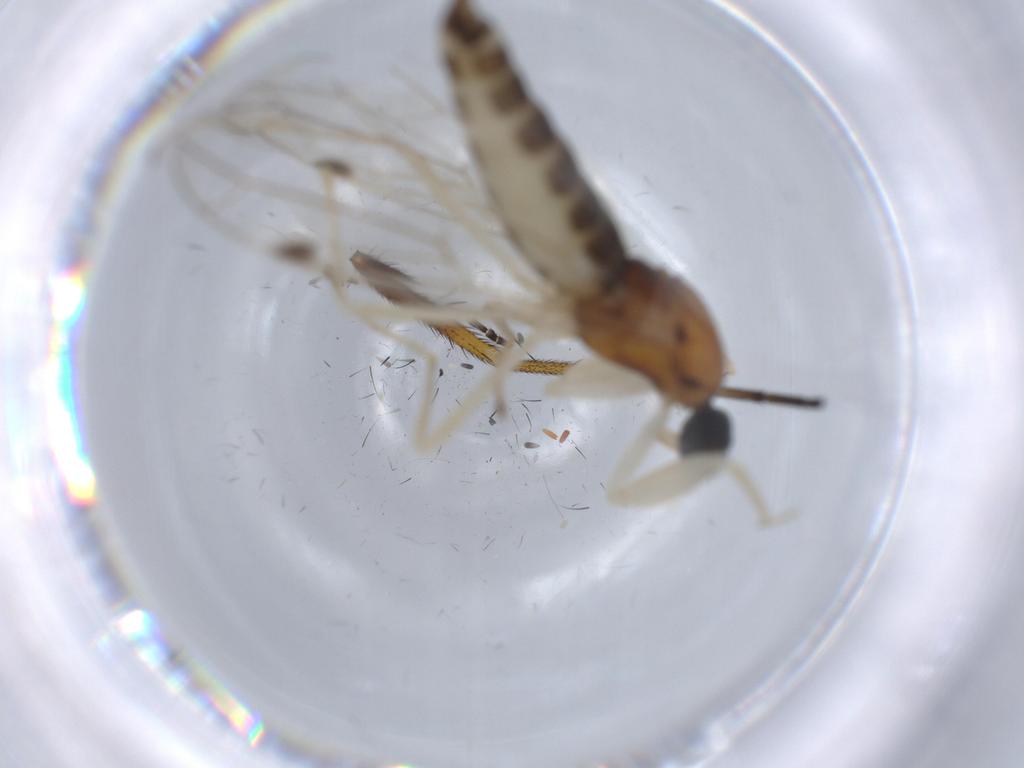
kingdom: Animalia
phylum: Arthropoda
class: Insecta
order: Diptera
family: Empididae
